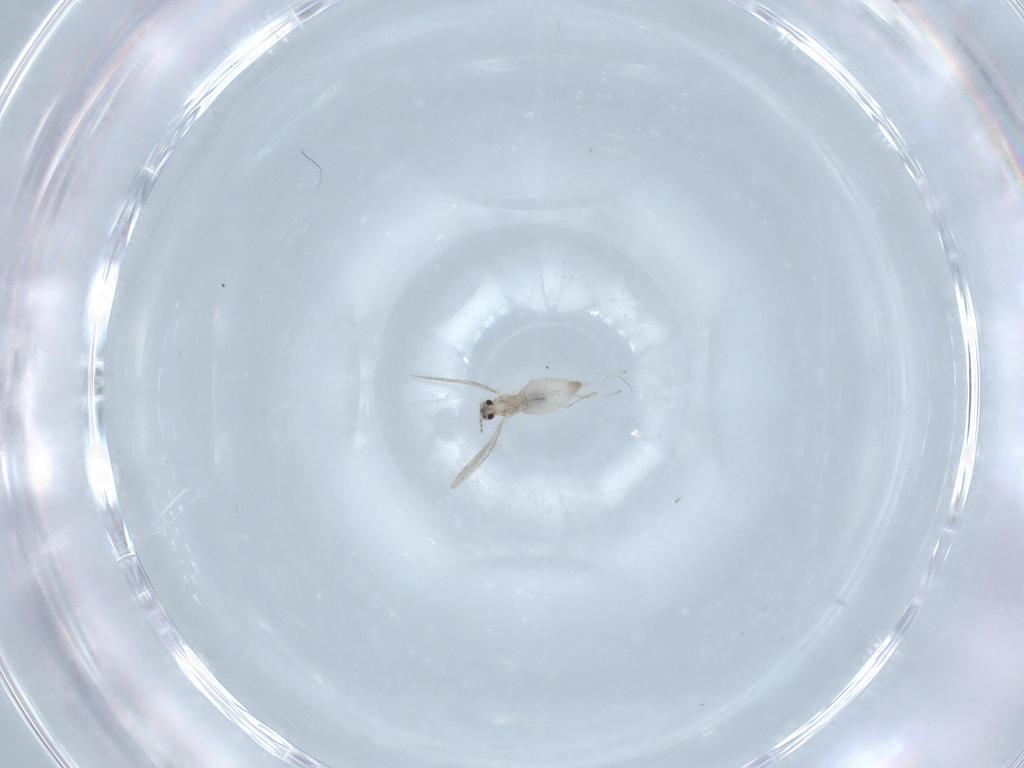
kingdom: Animalia
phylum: Arthropoda
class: Insecta
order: Diptera
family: Cecidomyiidae
